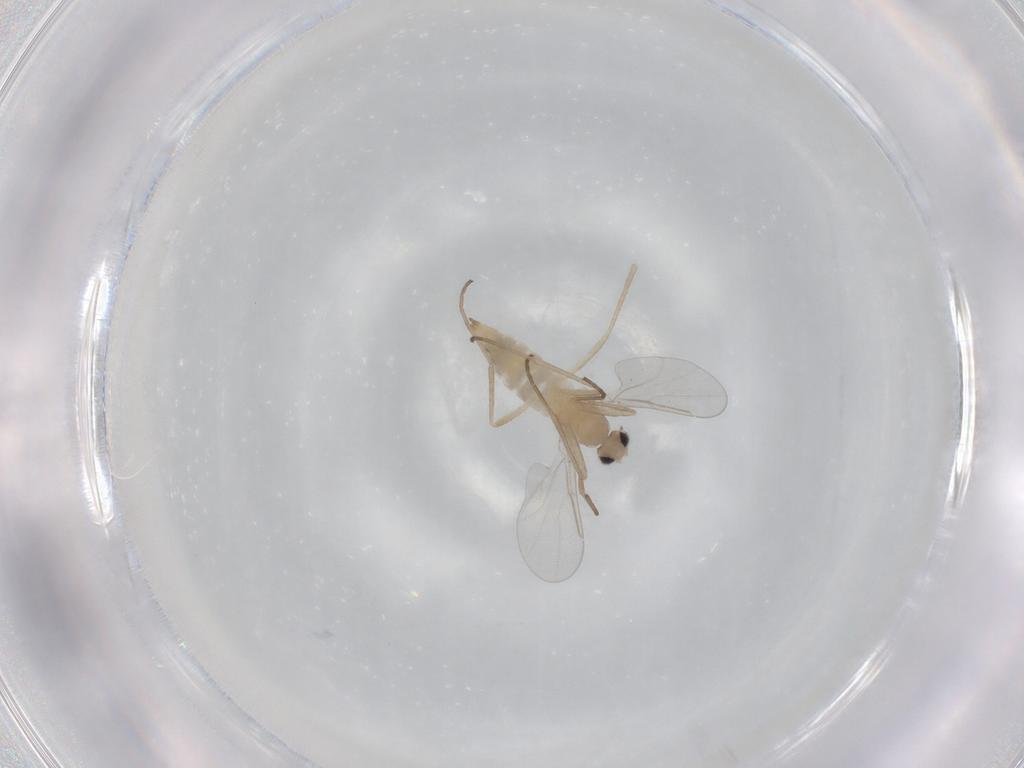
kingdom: Animalia
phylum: Arthropoda
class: Insecta
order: Diptera
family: Cecidomyiidae
